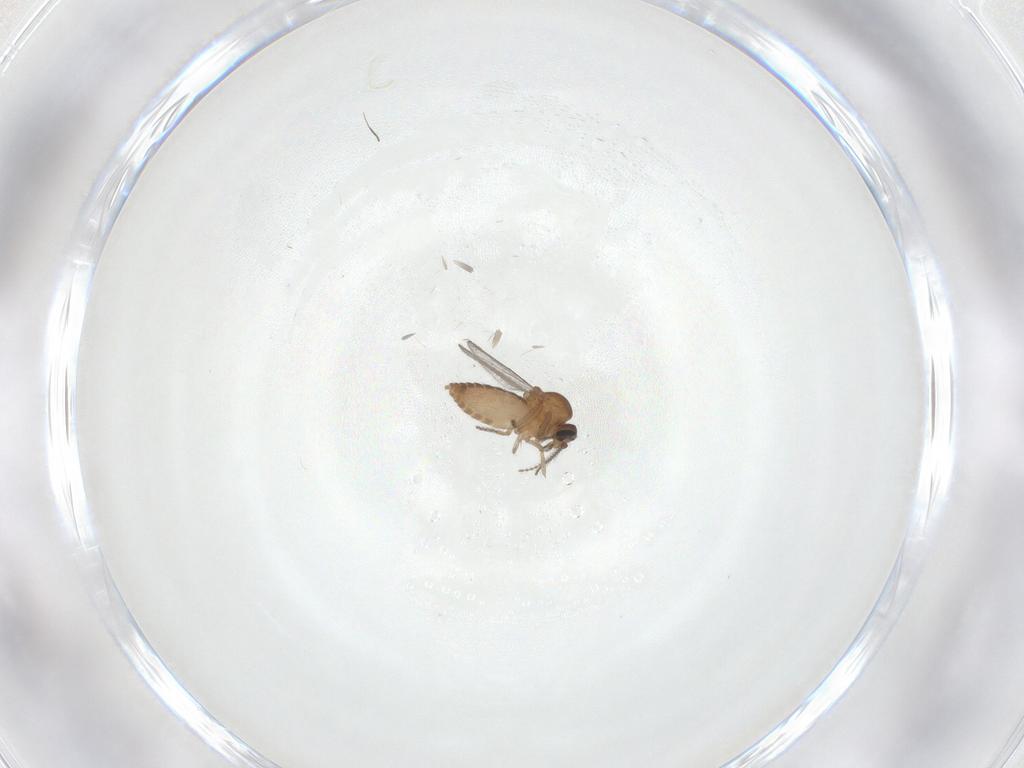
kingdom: Animalia
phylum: Arthropoda
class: Insecta
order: Diptera
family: Ceratopogonidae
